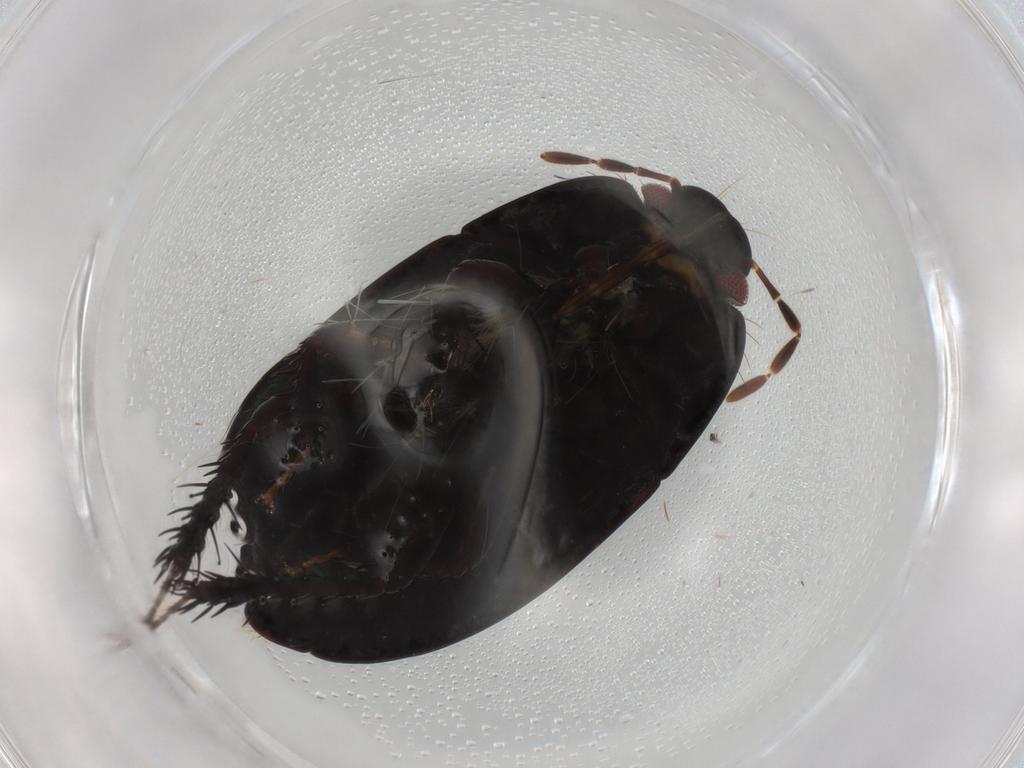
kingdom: Animalia
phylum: Arthropoda
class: Insecta
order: Hemiptera
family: Cydnidae
